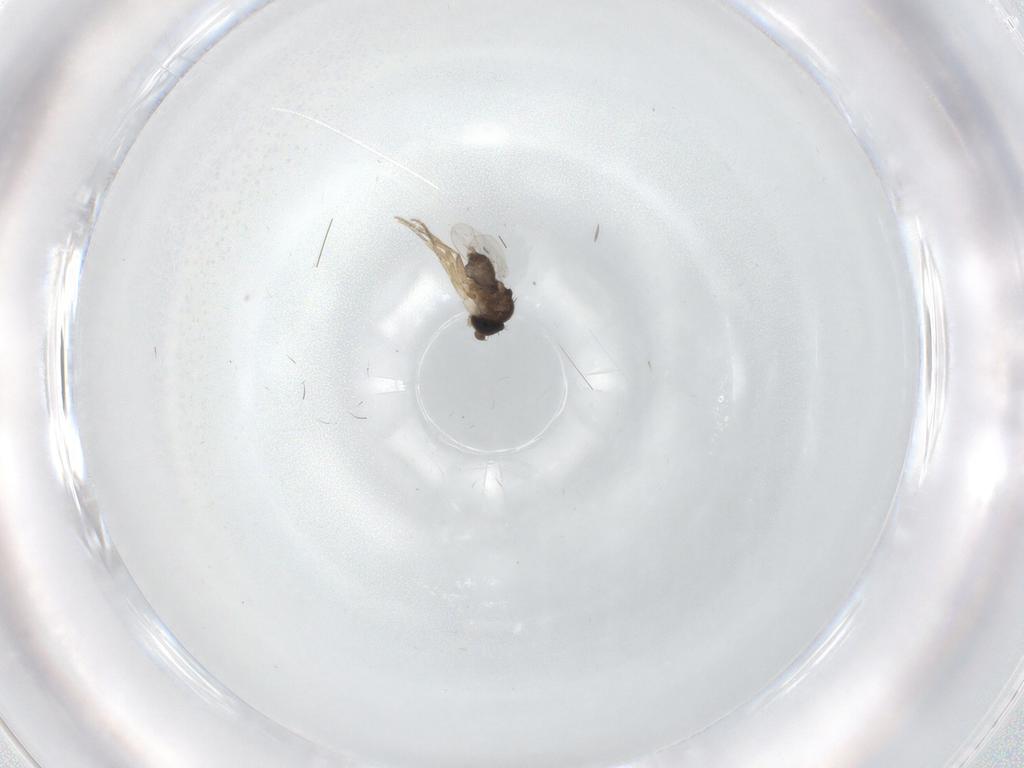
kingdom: Animalia
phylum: Arthropoda
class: Insecta
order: Diptera
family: Phoridae
